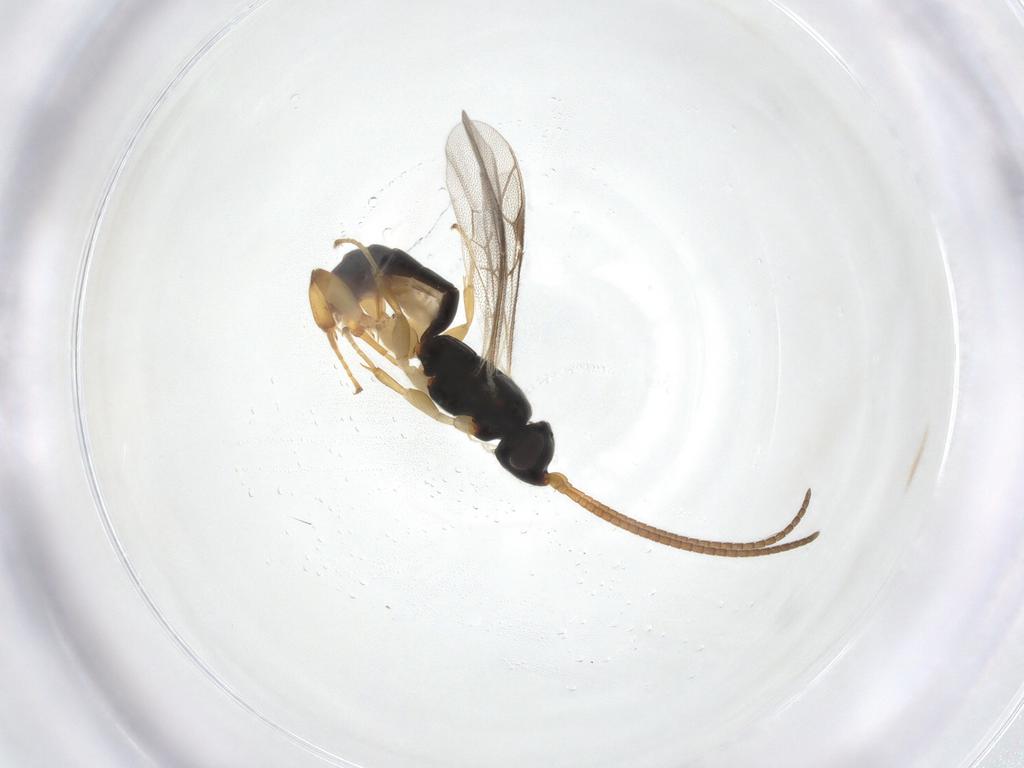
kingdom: Animalia
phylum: Arthropoda
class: Insecta
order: Hymenoptera
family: Ichneumonidae
